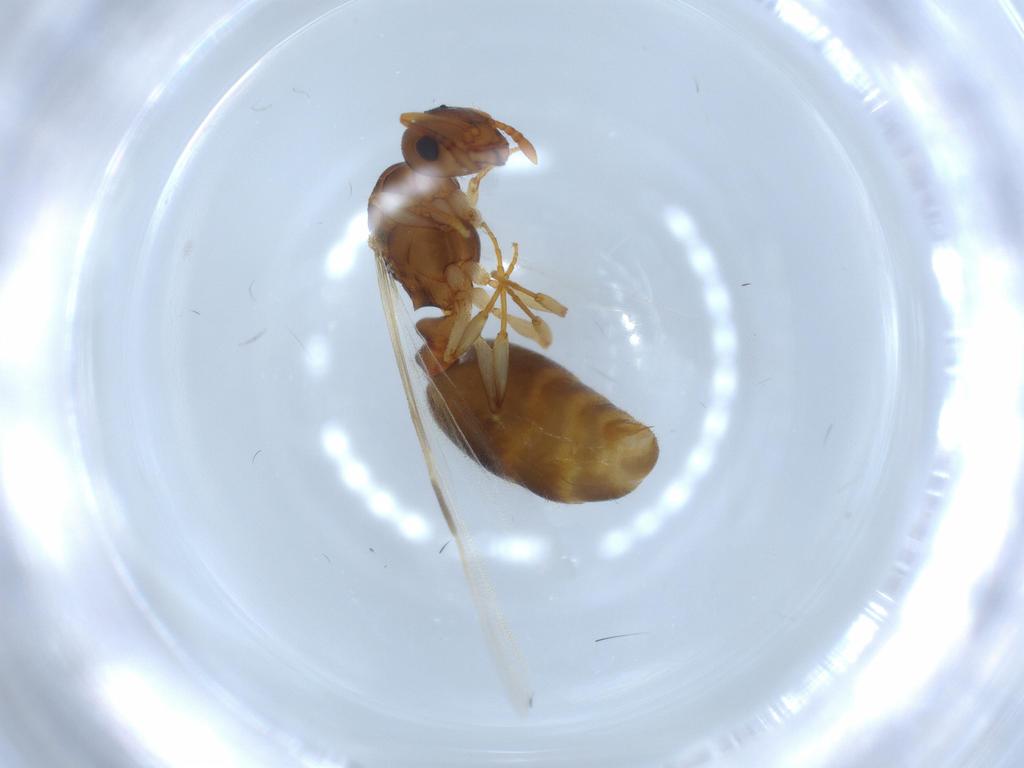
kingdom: Animalia
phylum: Arthropoda
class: Insecta
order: Hymenoptera
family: Formicidae
